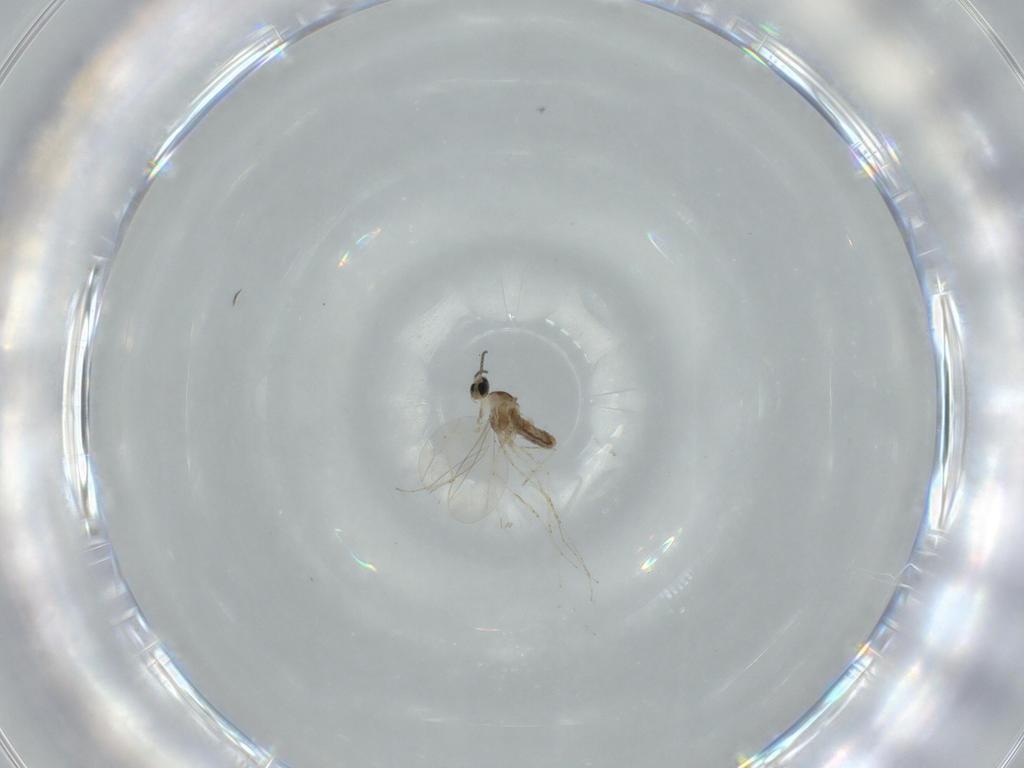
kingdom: Animalia
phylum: Arthropoda
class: Insecta
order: Diptera
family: Cecidomyiidae
